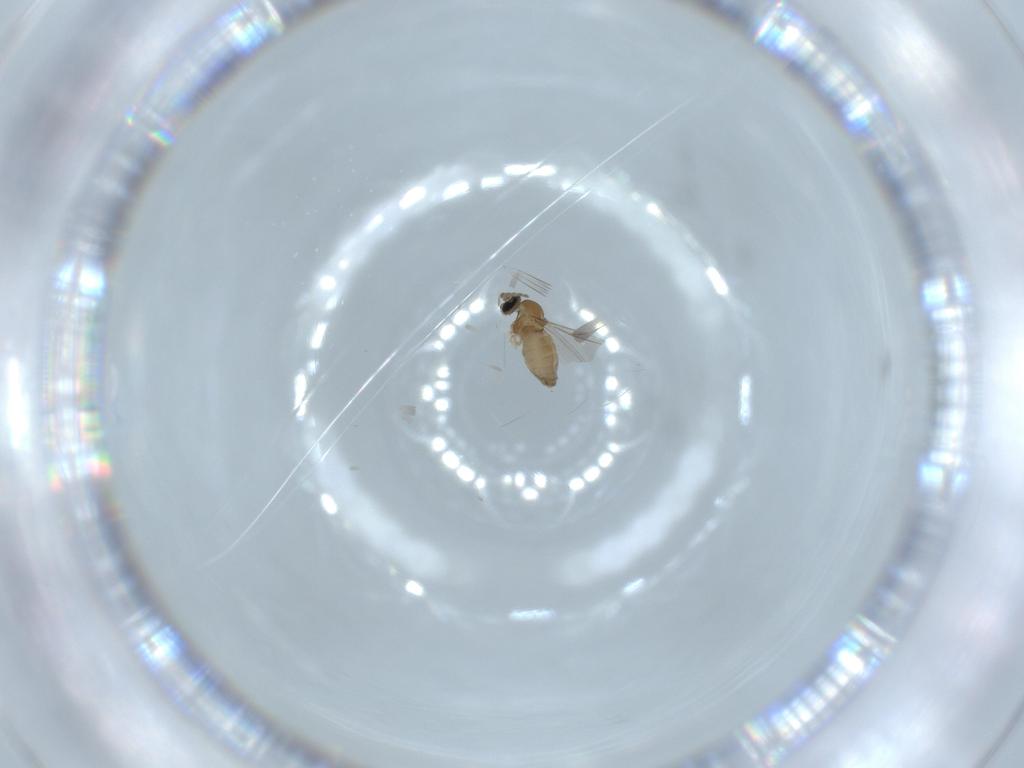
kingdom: Animalia
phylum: Arthropoda
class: Insecta
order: Diptera
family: Cecidomyiidae
